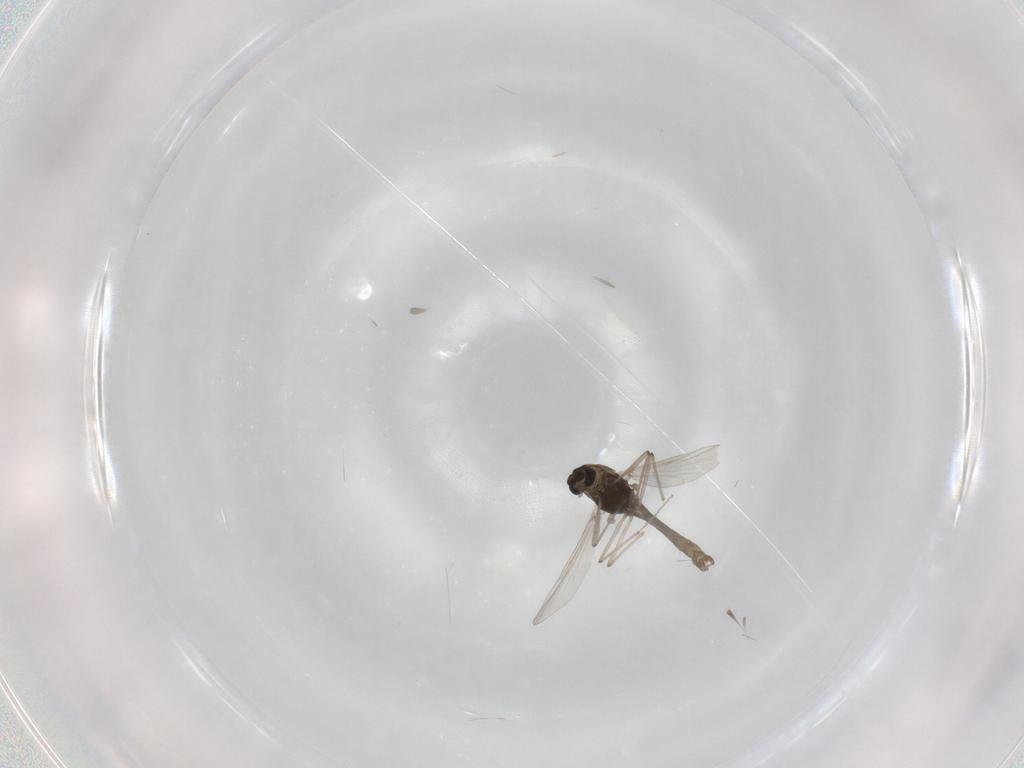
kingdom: Animalia
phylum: Arthropoda
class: Insecta
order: Diptera
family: Chironomidae
